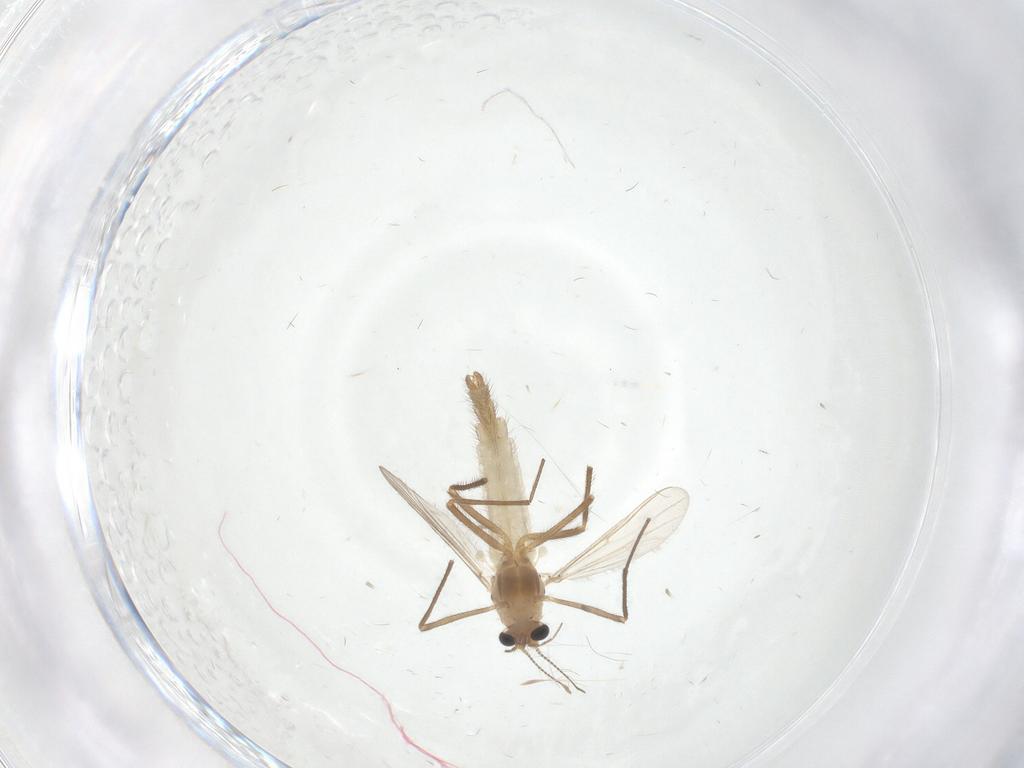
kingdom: Animalia
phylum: Arthropoda
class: Insecta
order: Diptera
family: Chironomidae
